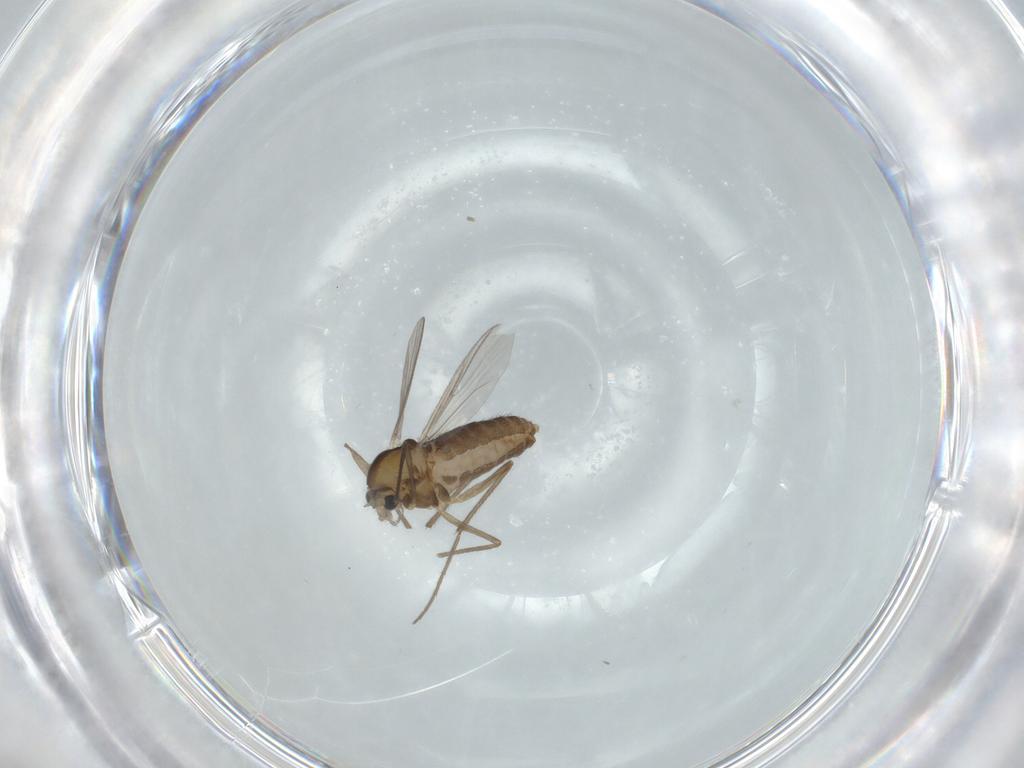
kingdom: Animalia
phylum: Arthropoda
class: Insecta
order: Diptera
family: Chironomidae
